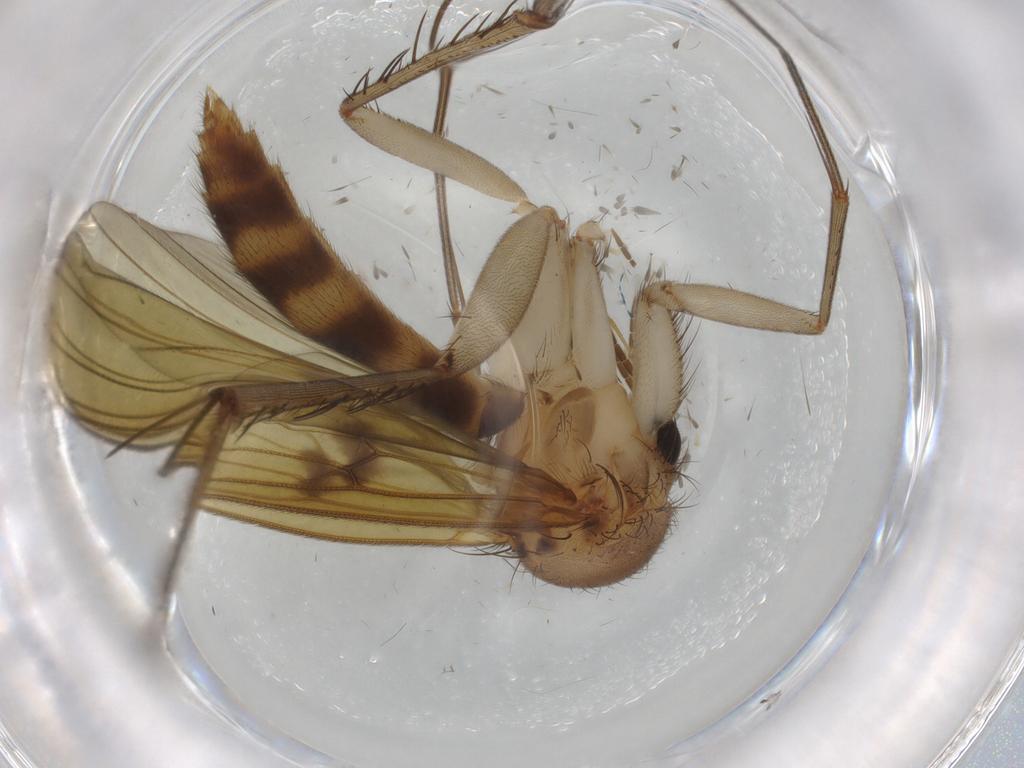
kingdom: Animalia
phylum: Arthropoda
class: Insecta
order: Diptera
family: Mycetophilidae
